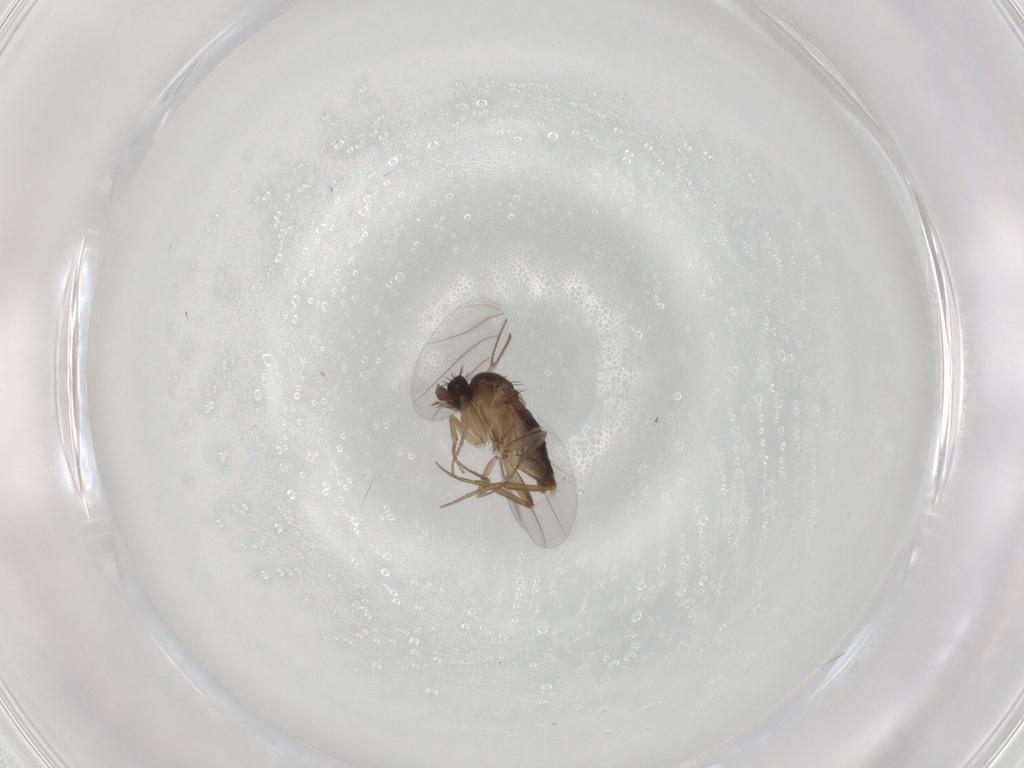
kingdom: Animalia
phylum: Arthropoda
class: Insecta
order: Diptera
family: Phoridae
